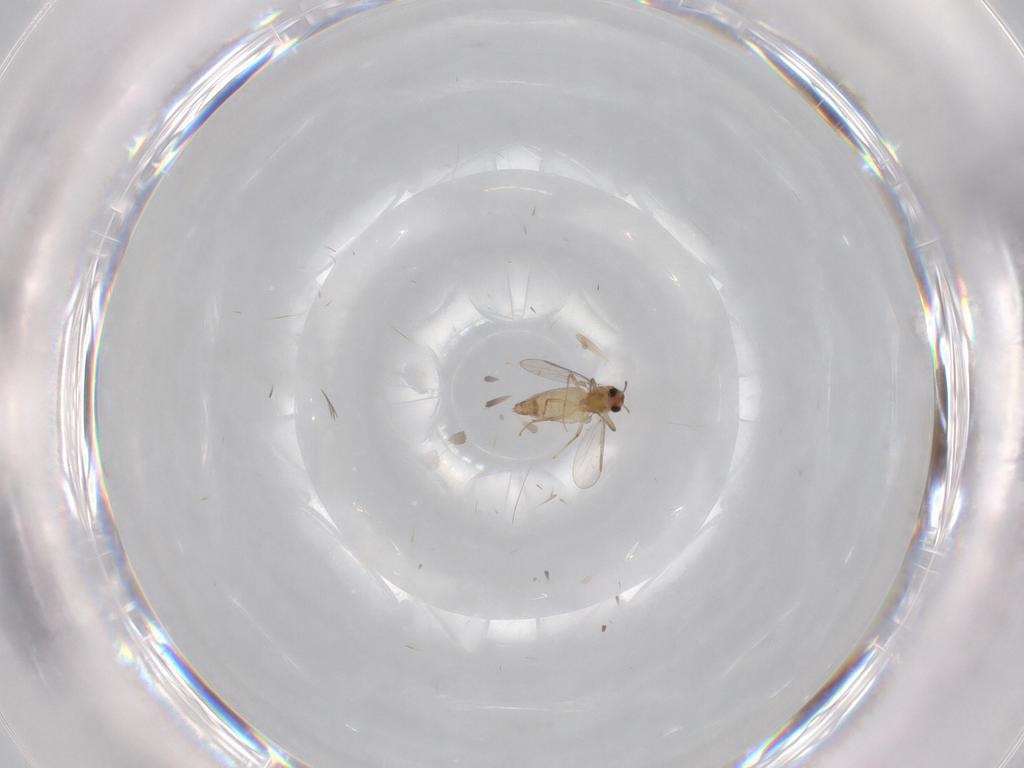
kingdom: Animalia
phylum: Arthropoda
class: Insecta
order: Diptera
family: Chironomidae
